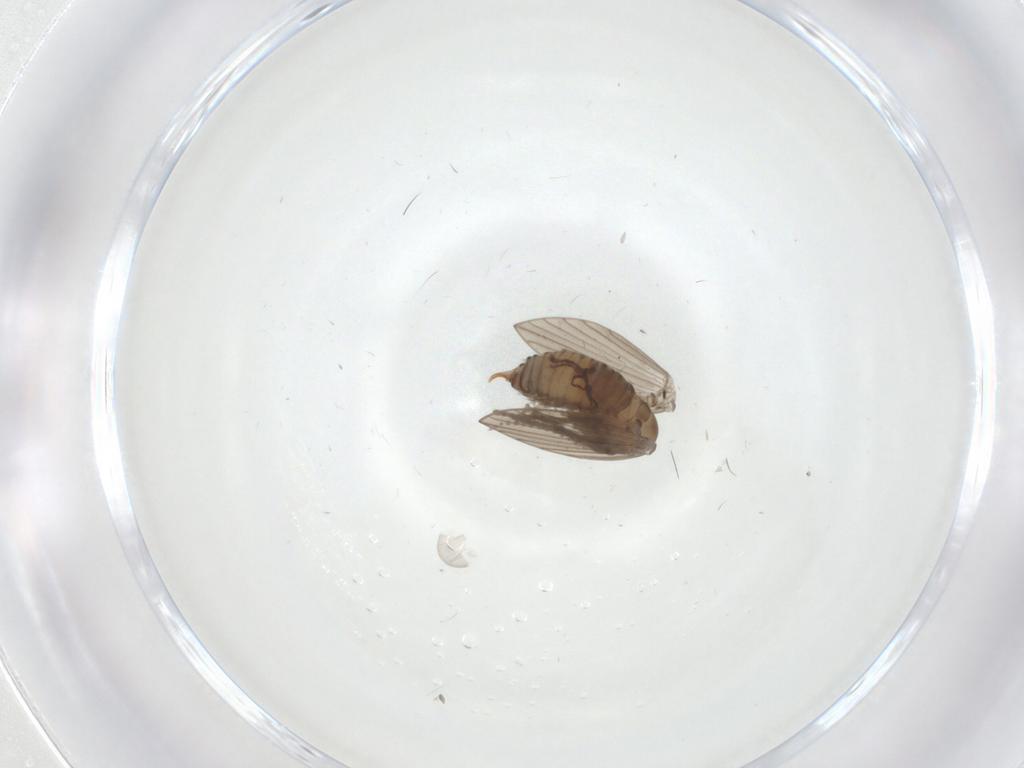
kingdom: Animalia
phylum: Arthropoda
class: Insecta
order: Diptera
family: Psychodidae
